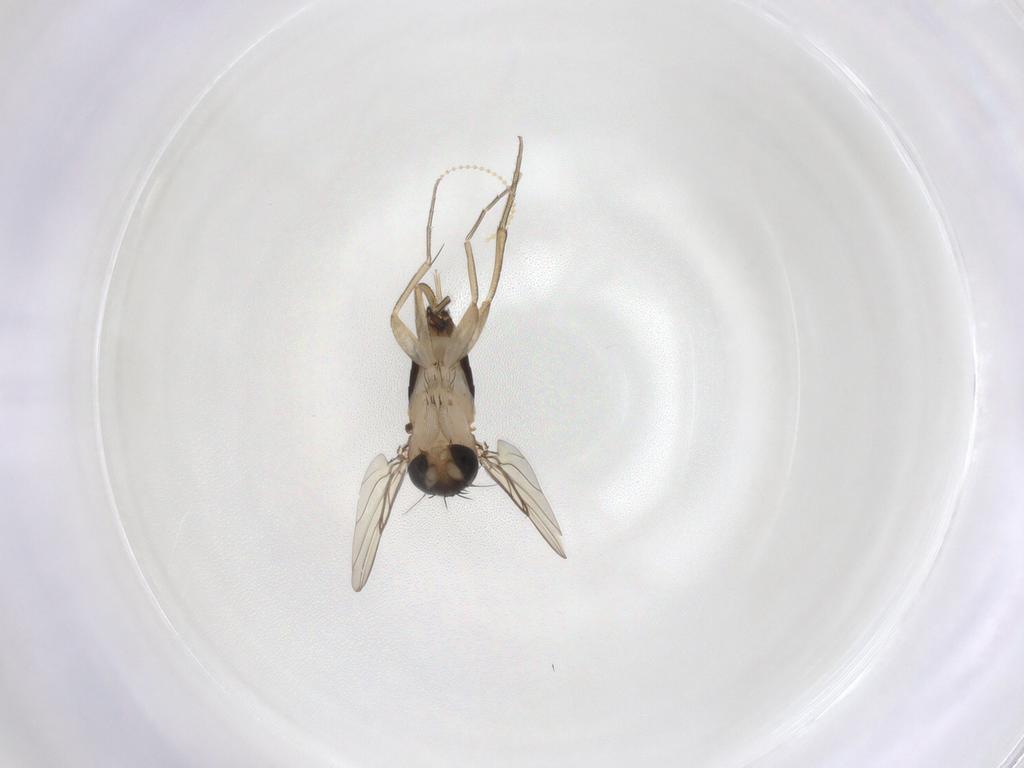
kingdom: Animalia
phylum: Arthropoda
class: Insecta
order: Diptera
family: Phoridae
